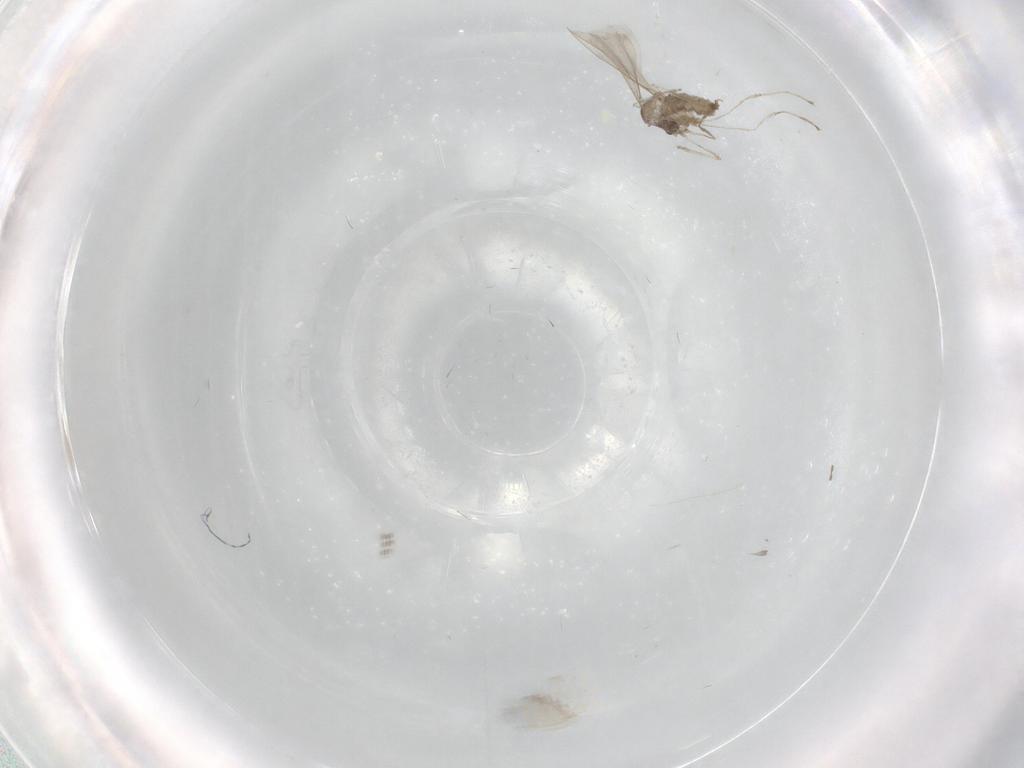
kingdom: Animalia
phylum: Arthropoda
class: Insecta
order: Diptera
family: Cecidomyiidae
